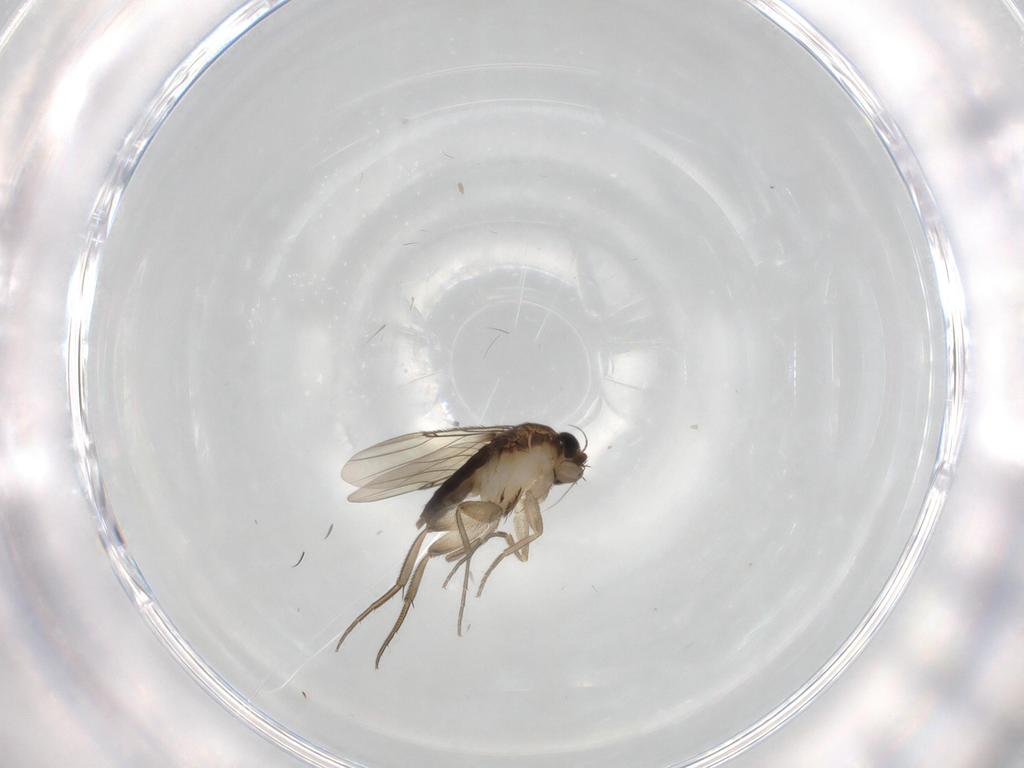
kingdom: Animalia
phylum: Arthropoda
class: Insecta
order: Diptera
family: Phoridae
